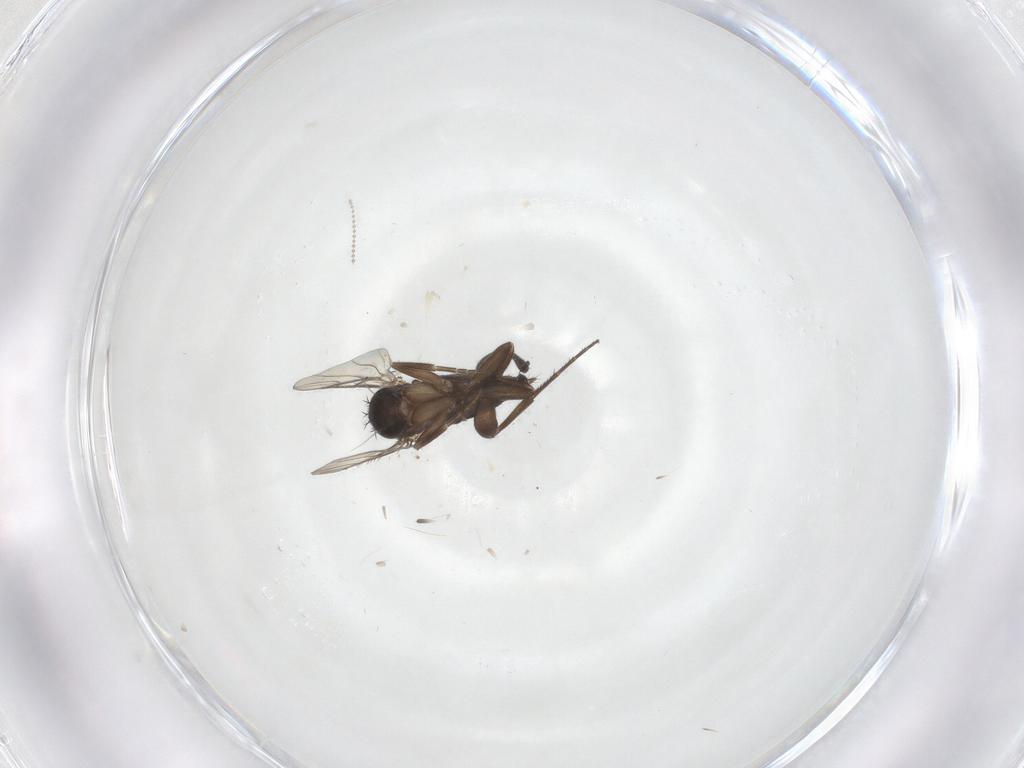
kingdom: Animalia
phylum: Arthropoda
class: Insecta
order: Diptera
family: Phoridae
